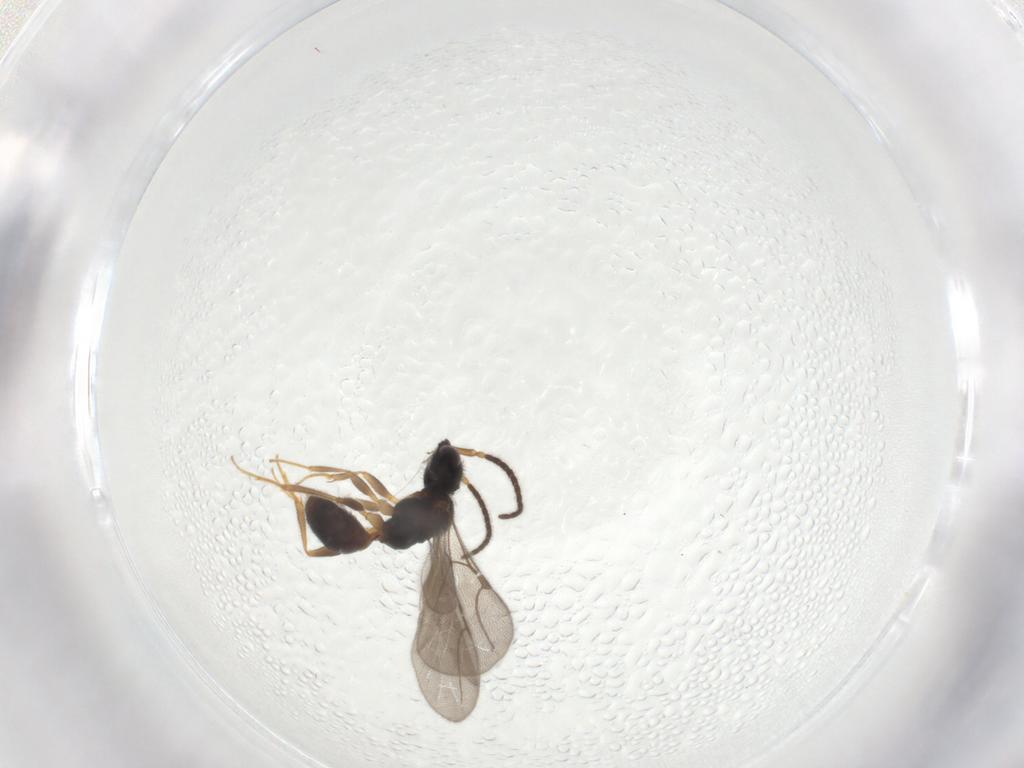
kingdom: Animalia
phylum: Arthropoda
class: Insecta
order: Hymenoptera
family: Bethylidae
